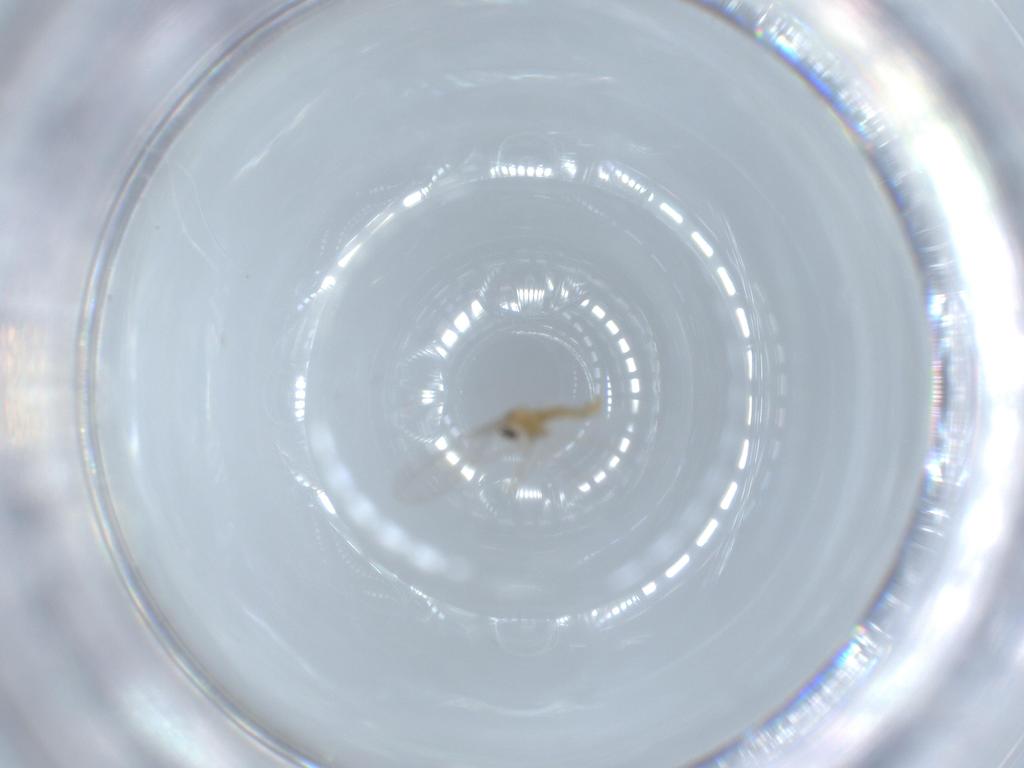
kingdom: Animalia
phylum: Arthropoda
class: Insecta
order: Diptera
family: Cecidomyiidae
